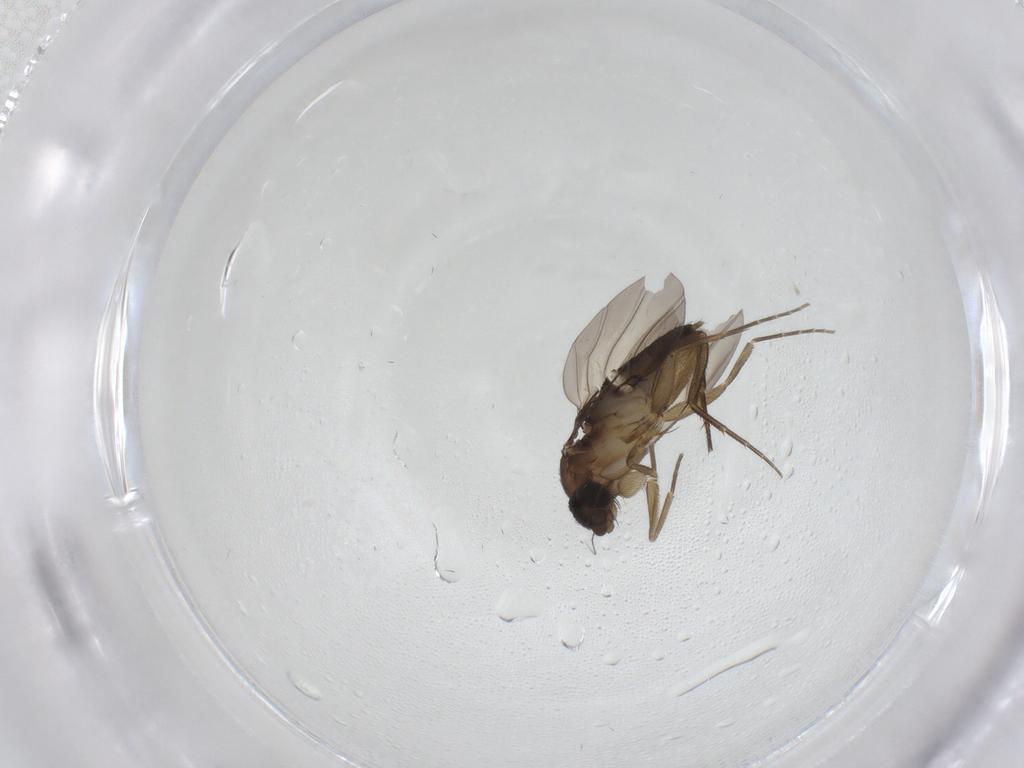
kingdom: Animalia
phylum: Arthropoda
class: Insecta
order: Diptera
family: Phoridae
